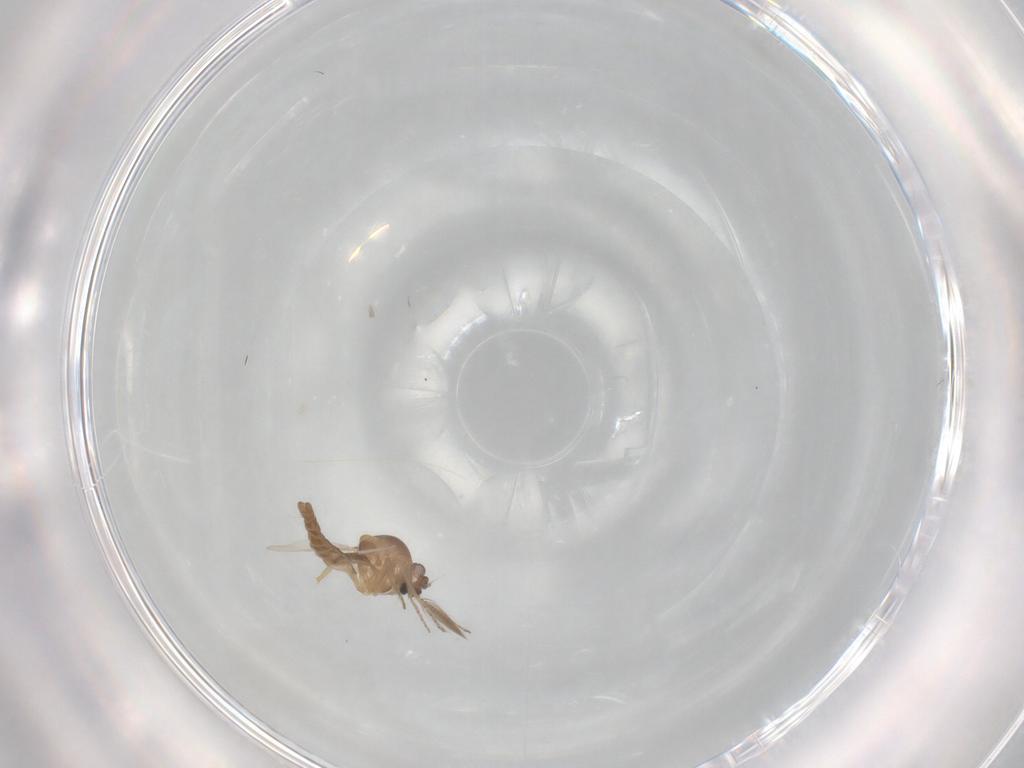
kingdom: Animalia
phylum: Arthropoda
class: Insecta
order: Diptera
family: Ceratopogonidae
